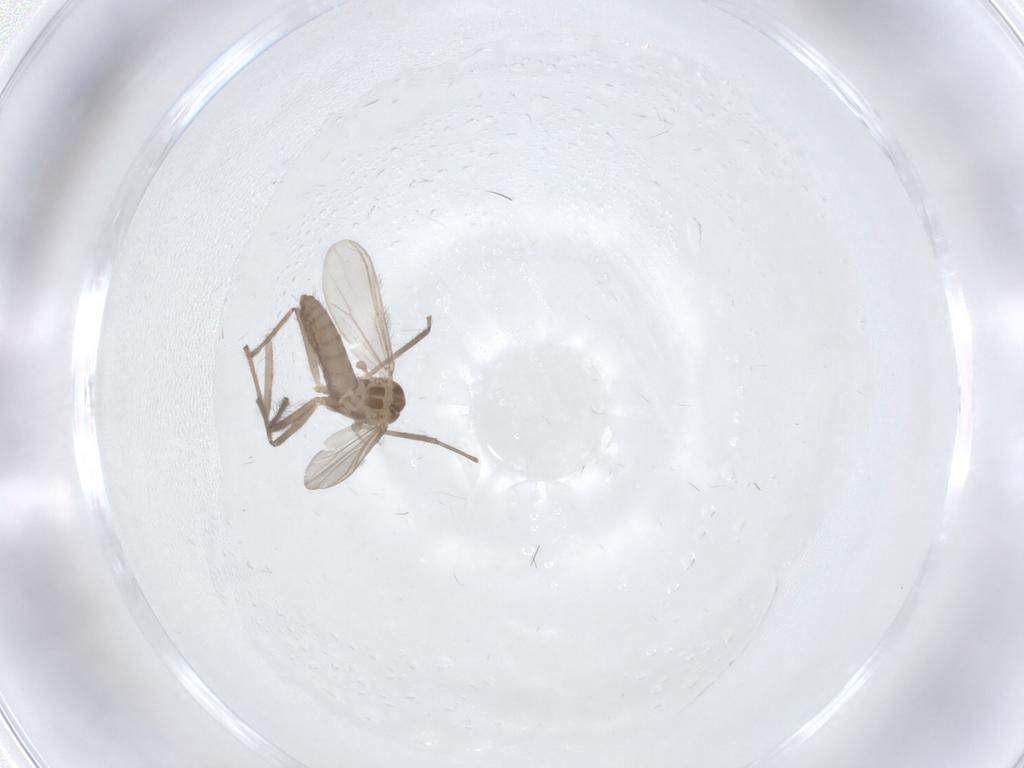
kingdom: Animalia
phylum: Arthropoda
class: Insecta
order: Diptera
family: Chironomidae
